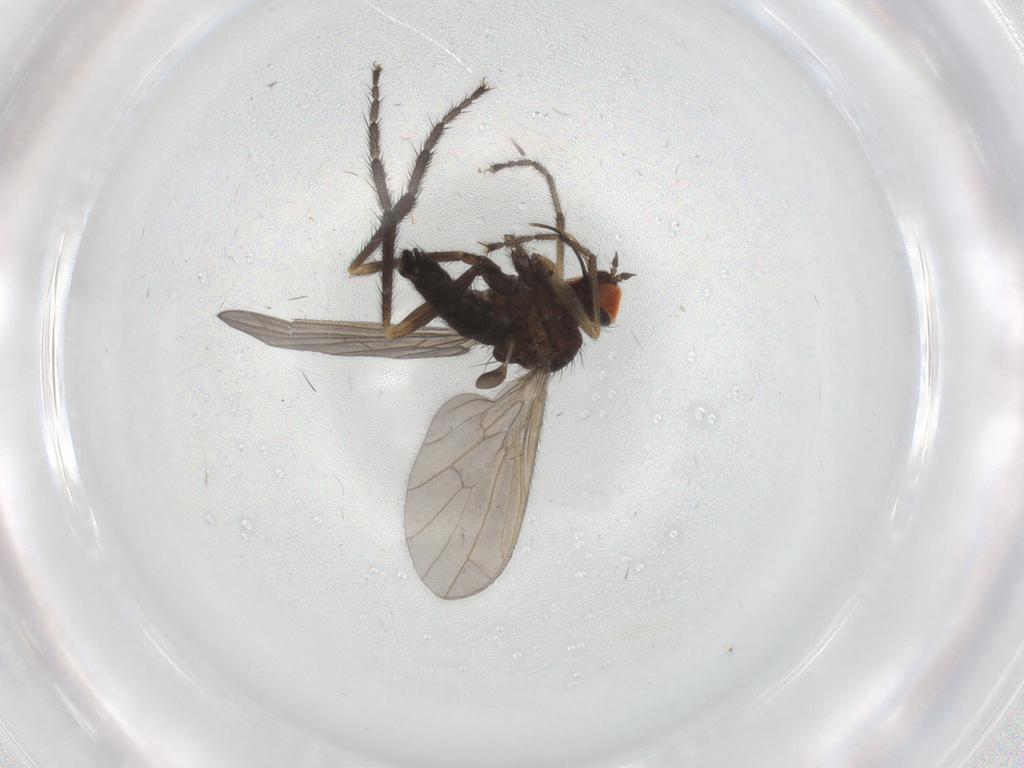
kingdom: Animalia
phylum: Arthropoda
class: Insecta
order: Diptera
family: Empididae
